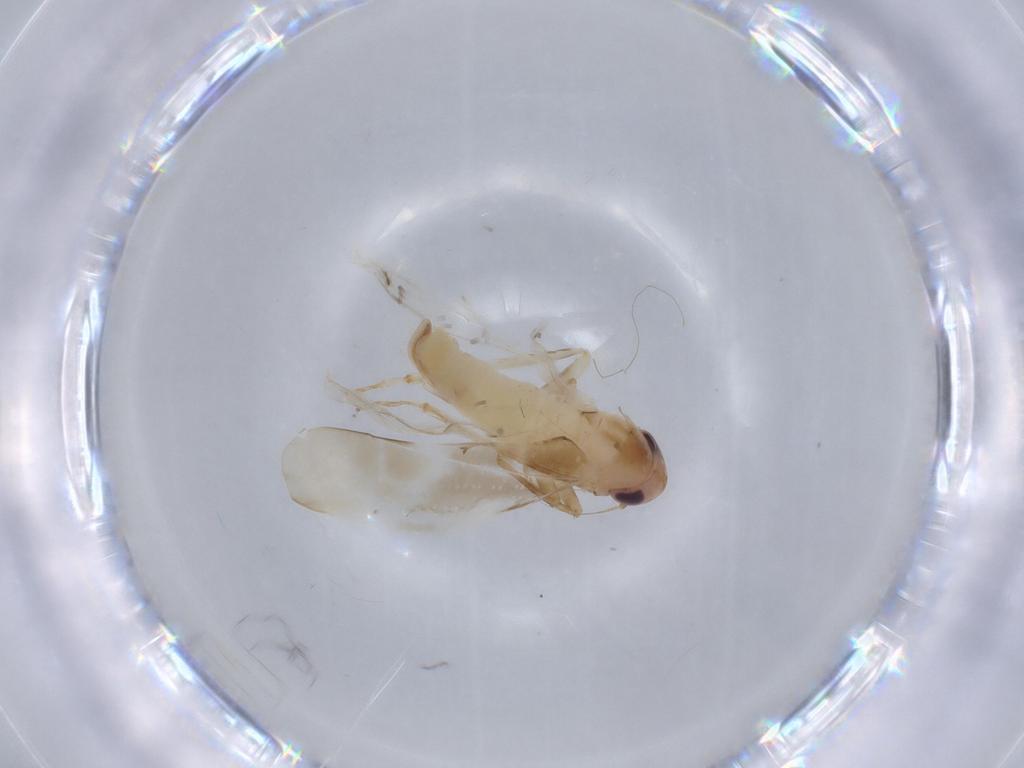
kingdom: Animalia
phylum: Arthropoda
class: Insecta
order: Hemiptera
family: Cicadellidae
